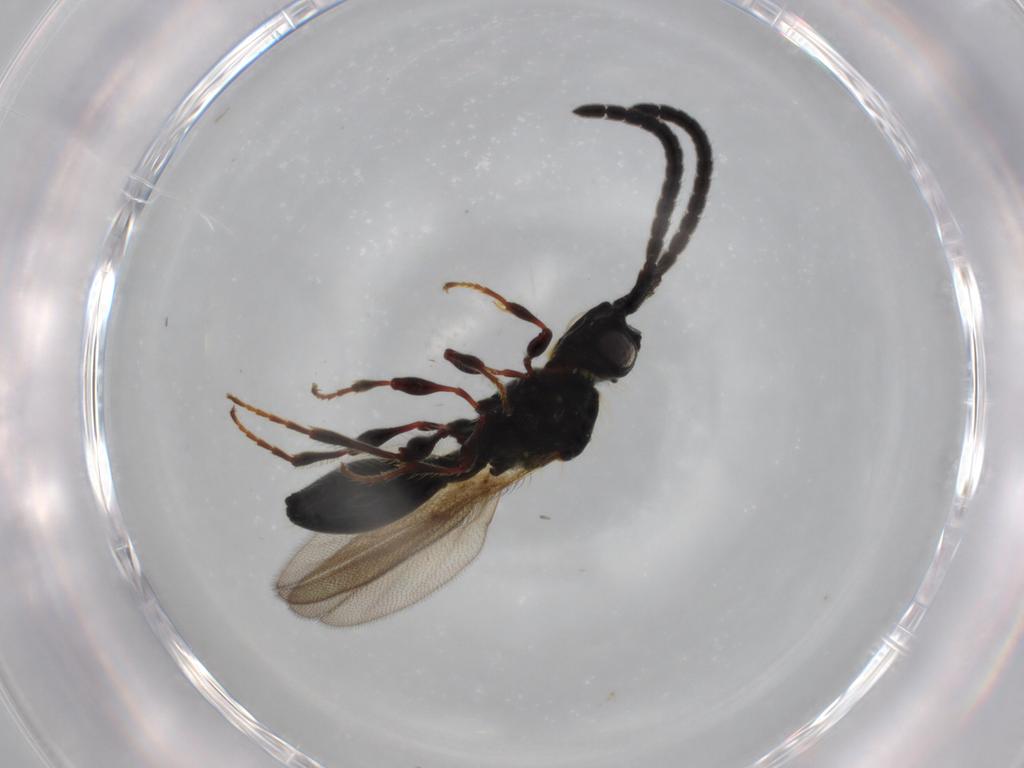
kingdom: Animalia
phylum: Arthropoda
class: Insecta
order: Hymenoptera
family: Diapriidae
